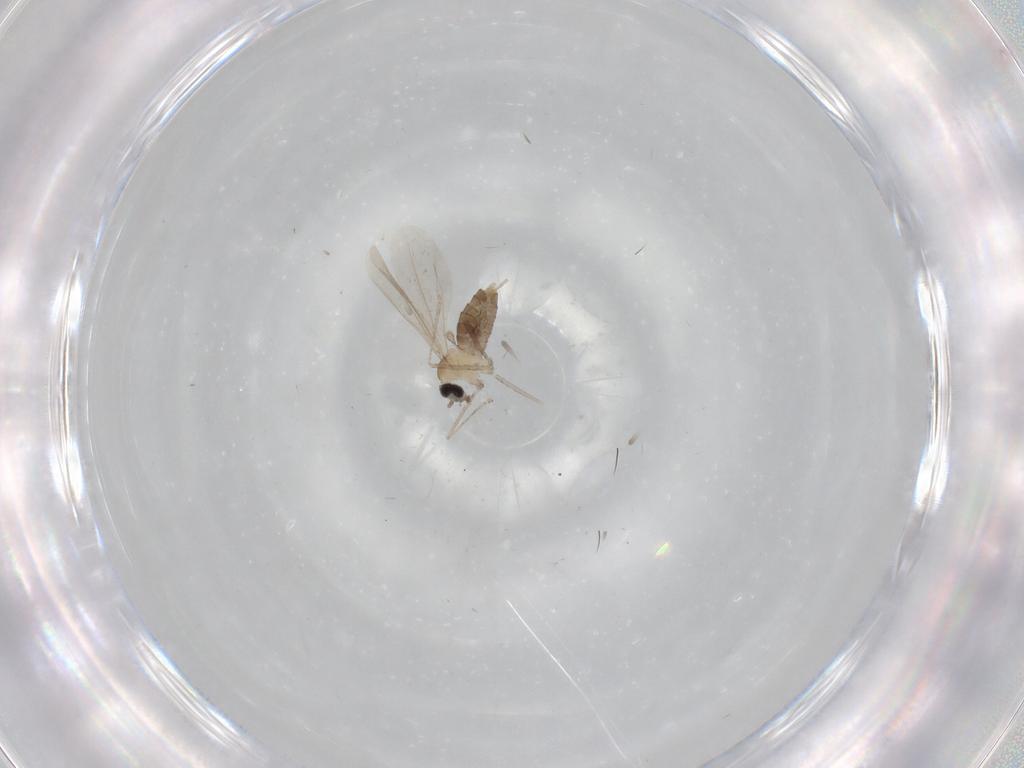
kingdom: Animalia
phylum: Arthropoda
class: Insecta
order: Diptera
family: Cecidomyiidae
